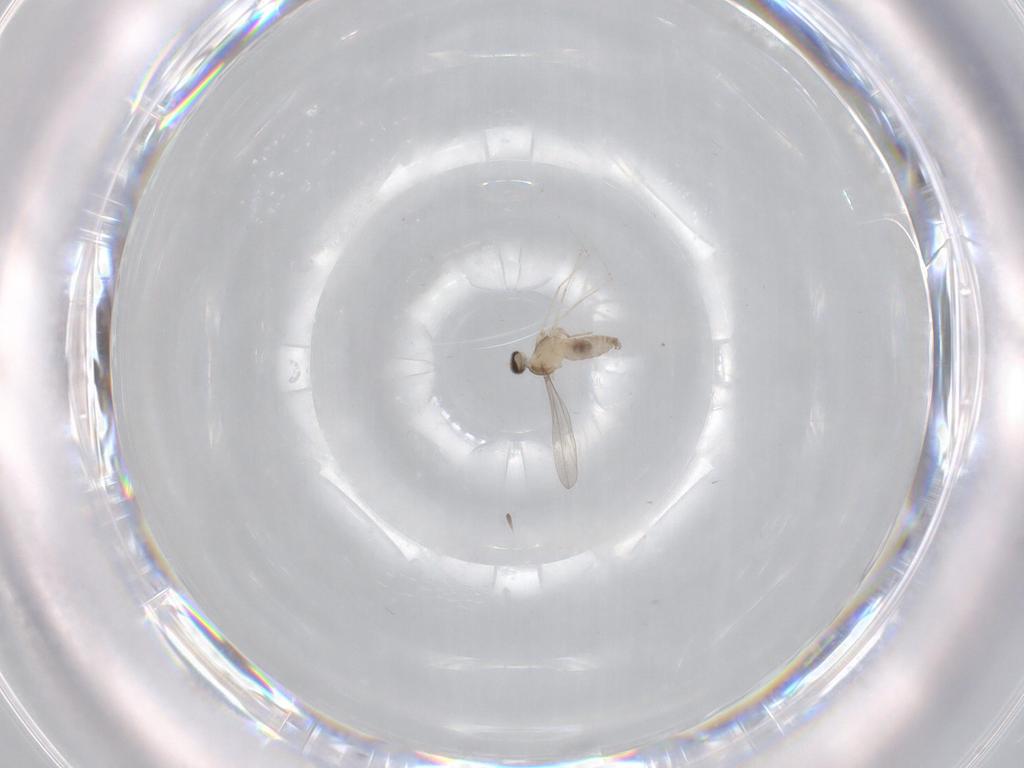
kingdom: Animalia
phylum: Arthropoda
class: Insecta
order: Diptera
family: Cecidomyiidae
